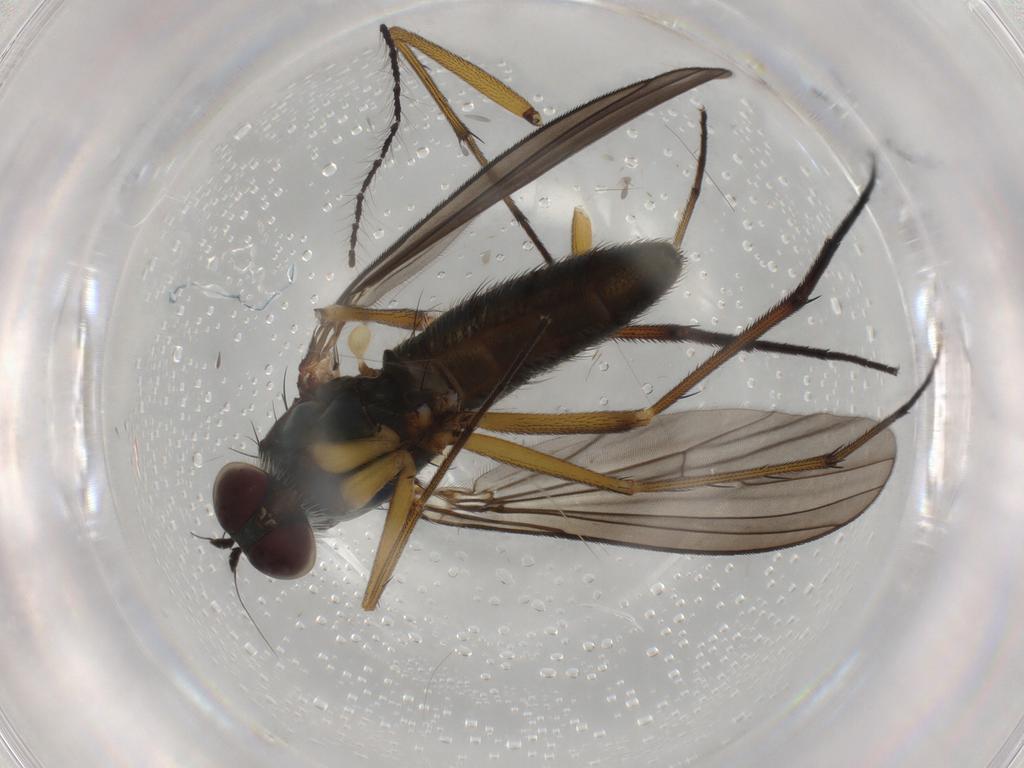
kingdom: Animalia
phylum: Arthropoda
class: Insecta
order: Diptera
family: Dolichopodidae
